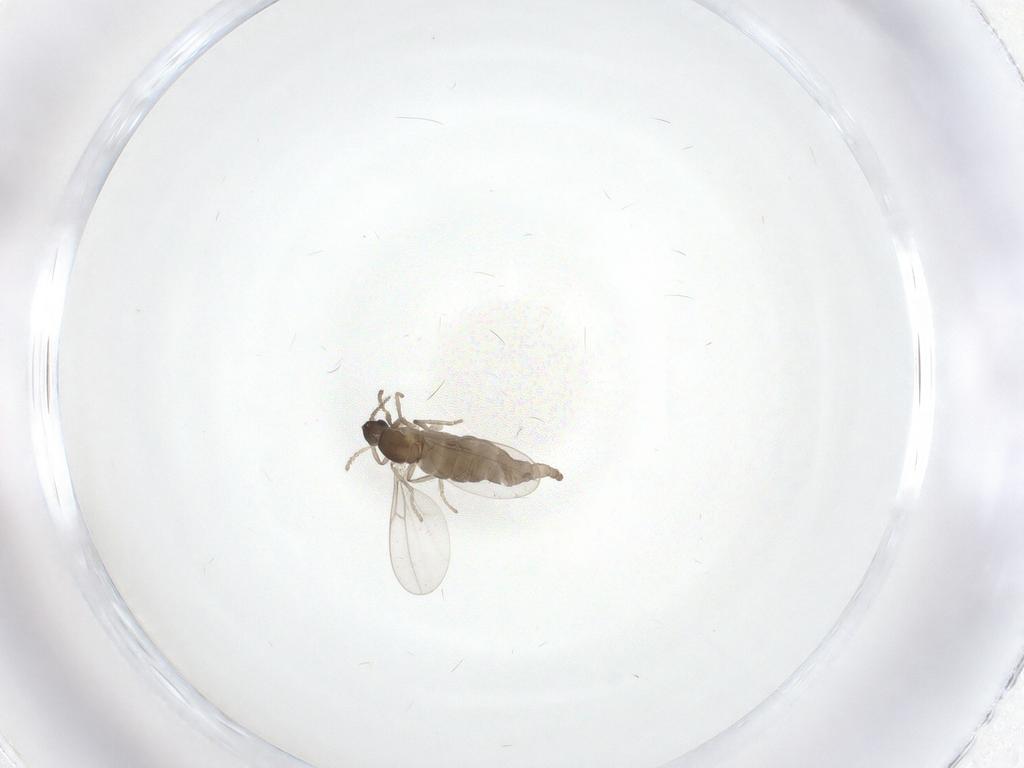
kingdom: Animalia
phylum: Arthropoda
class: Insecta
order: Diptera
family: Cecidomyiidae
